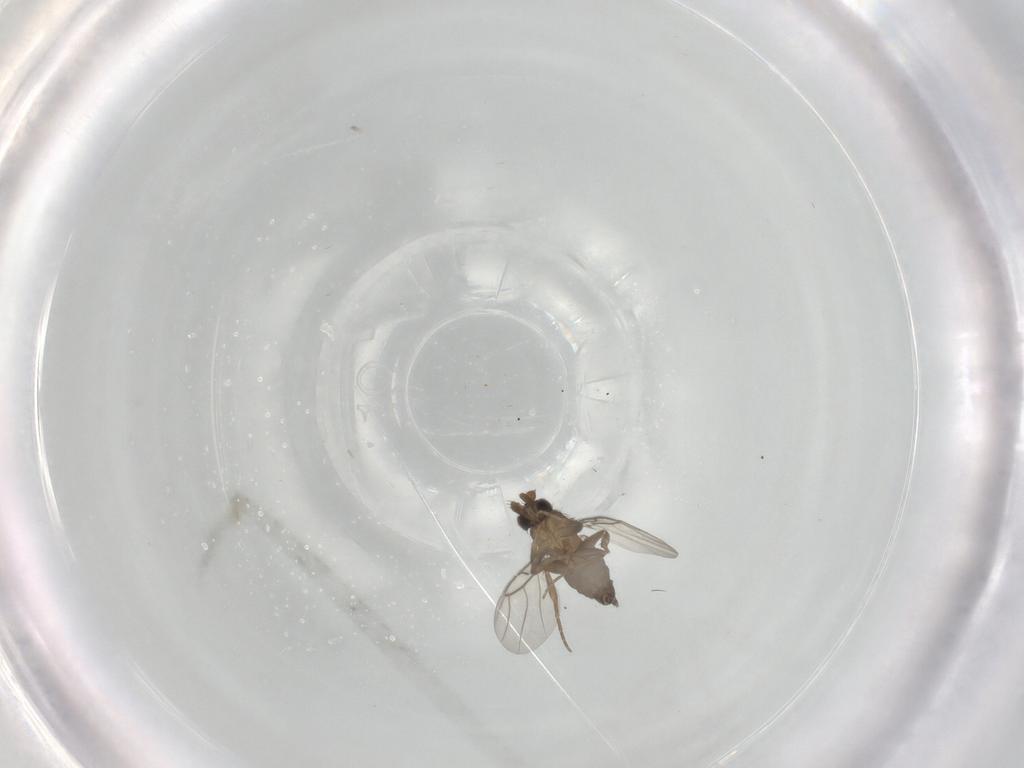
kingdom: Animalia
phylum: Arthropoda
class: Insecta
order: Diptera
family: Phoridae
